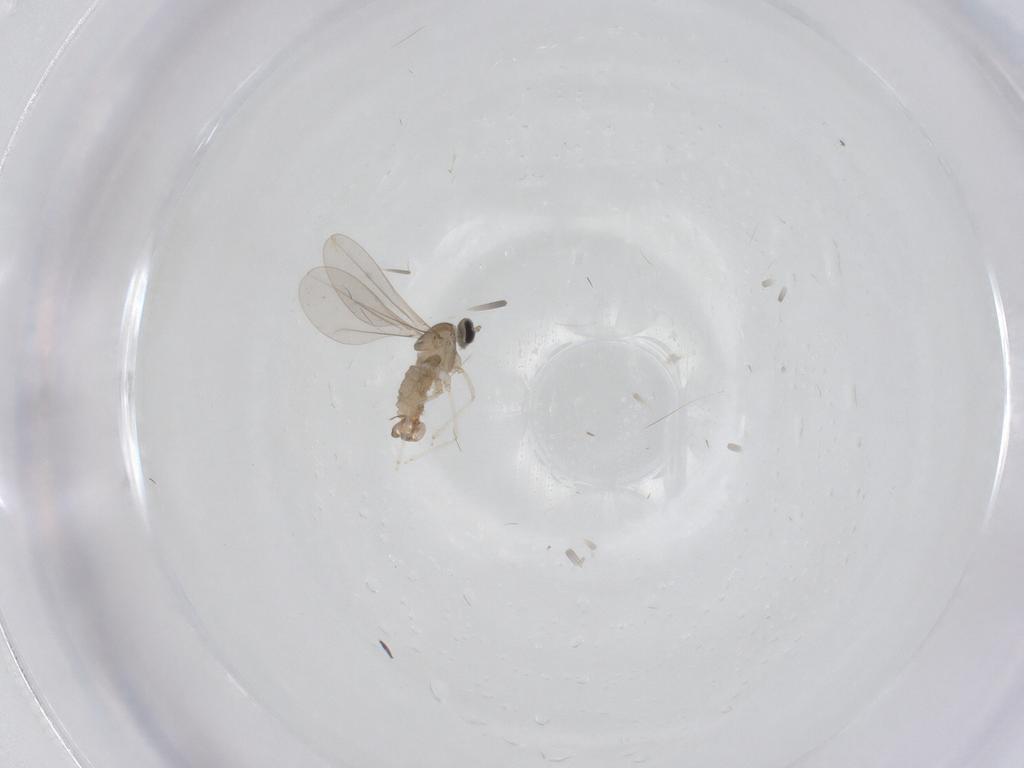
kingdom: Animalia
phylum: Arthropoda
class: Insecta
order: Diptera
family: Cecidomyiidae
